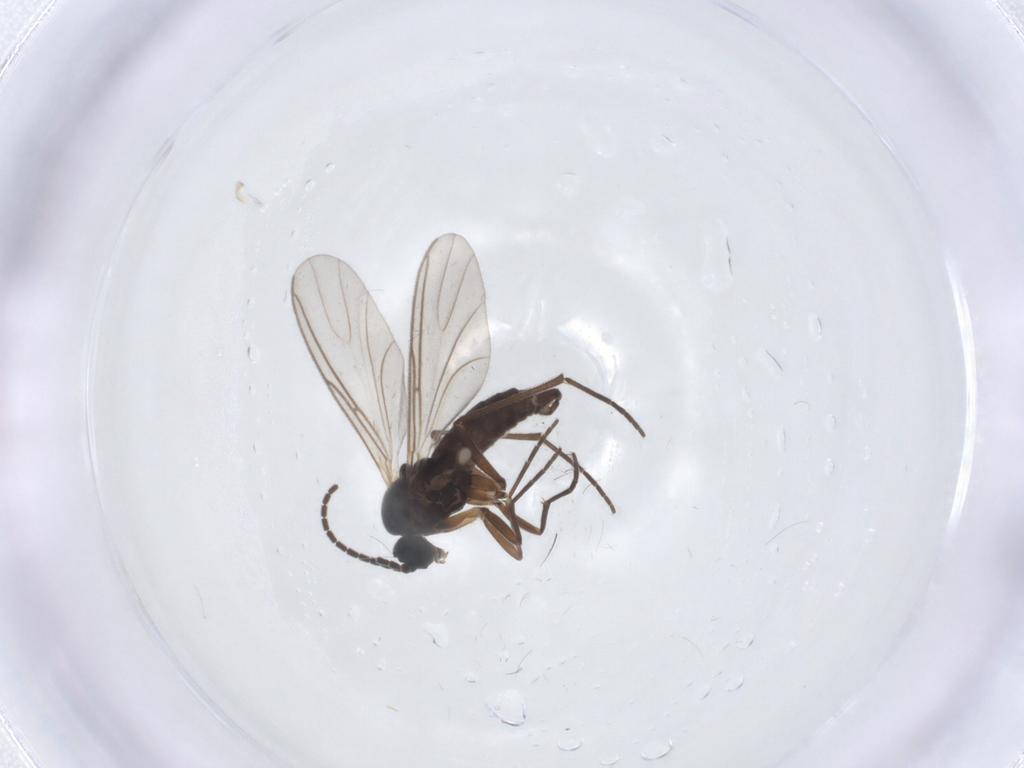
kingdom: Animalia
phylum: Arthropoda
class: Insecta
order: Diptera
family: Sciaridae
